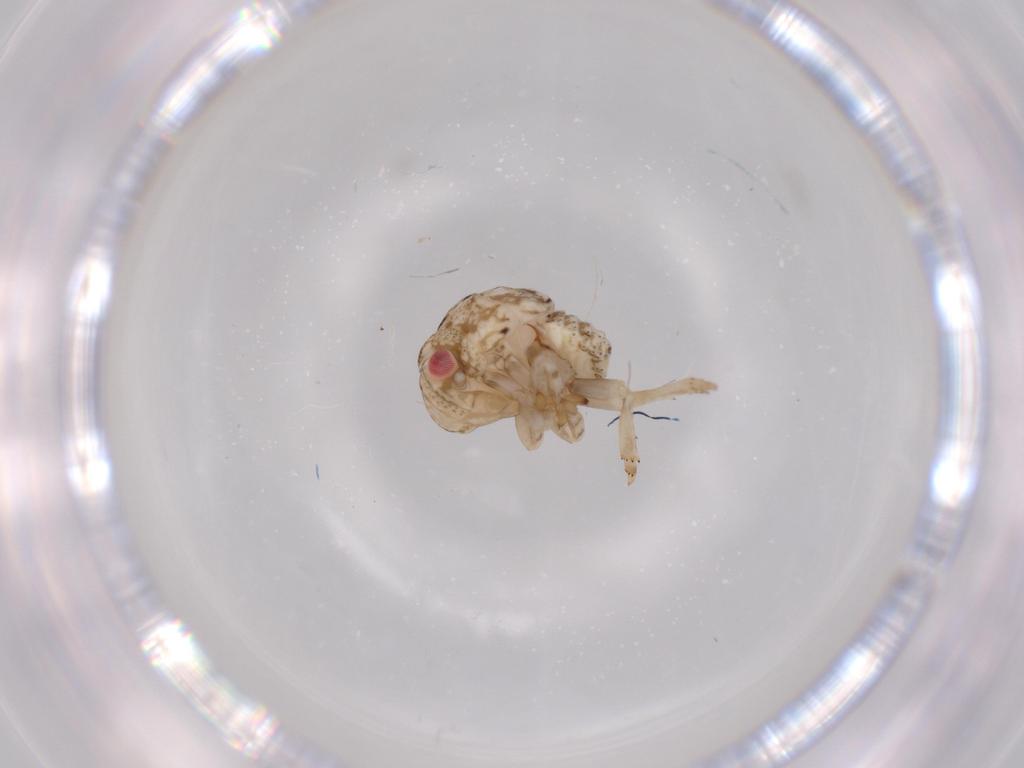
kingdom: Animalia
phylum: Arthropoda
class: Insecta
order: Hemiptera
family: Acanaloniidae
